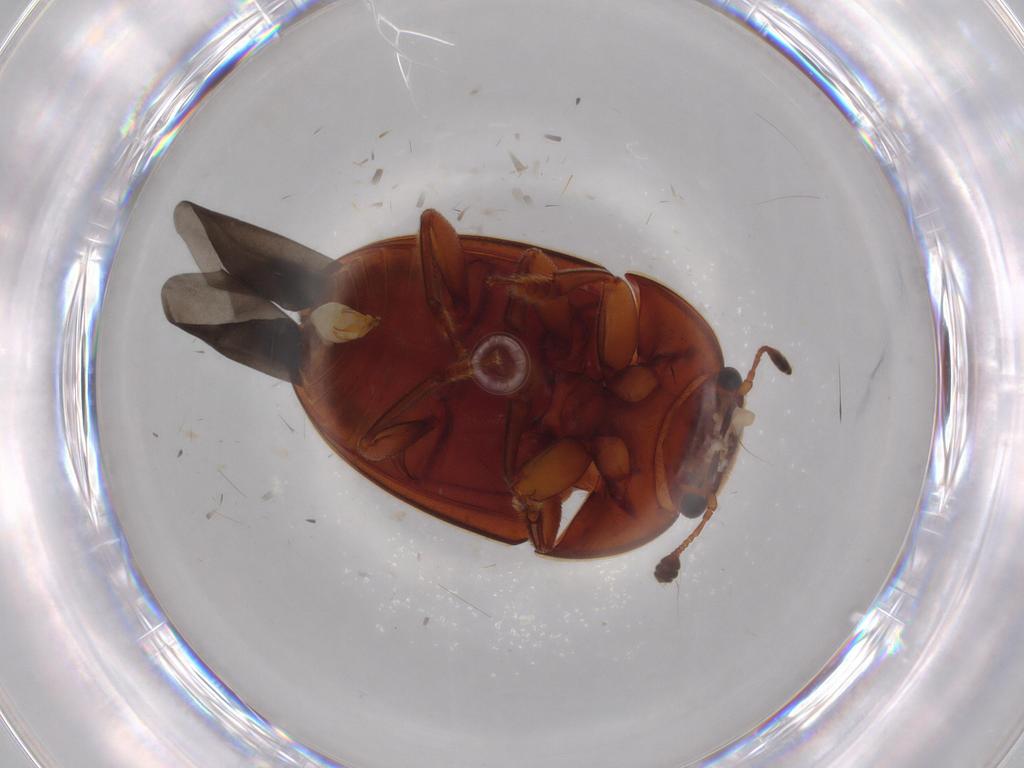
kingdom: Animalia
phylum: Arthropoda
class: Insecta
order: Coleoptera
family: Nitidulidae
